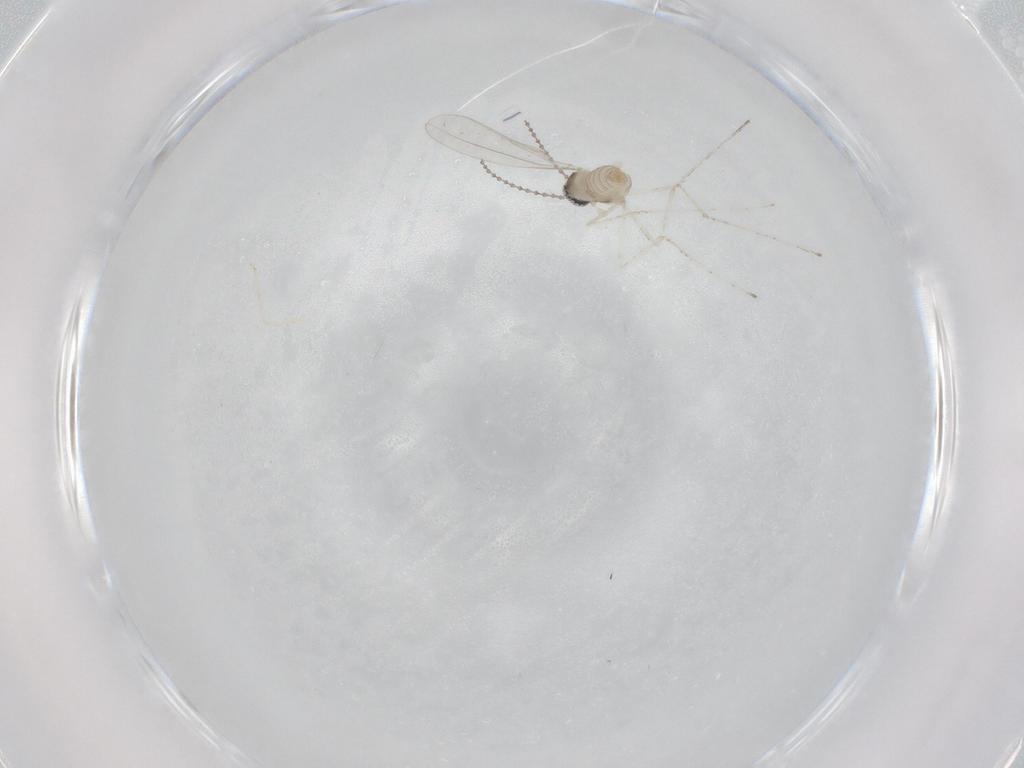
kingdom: Animalia
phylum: Arthropoda
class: Insecta
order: Diptera
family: Cecidomyiidae
